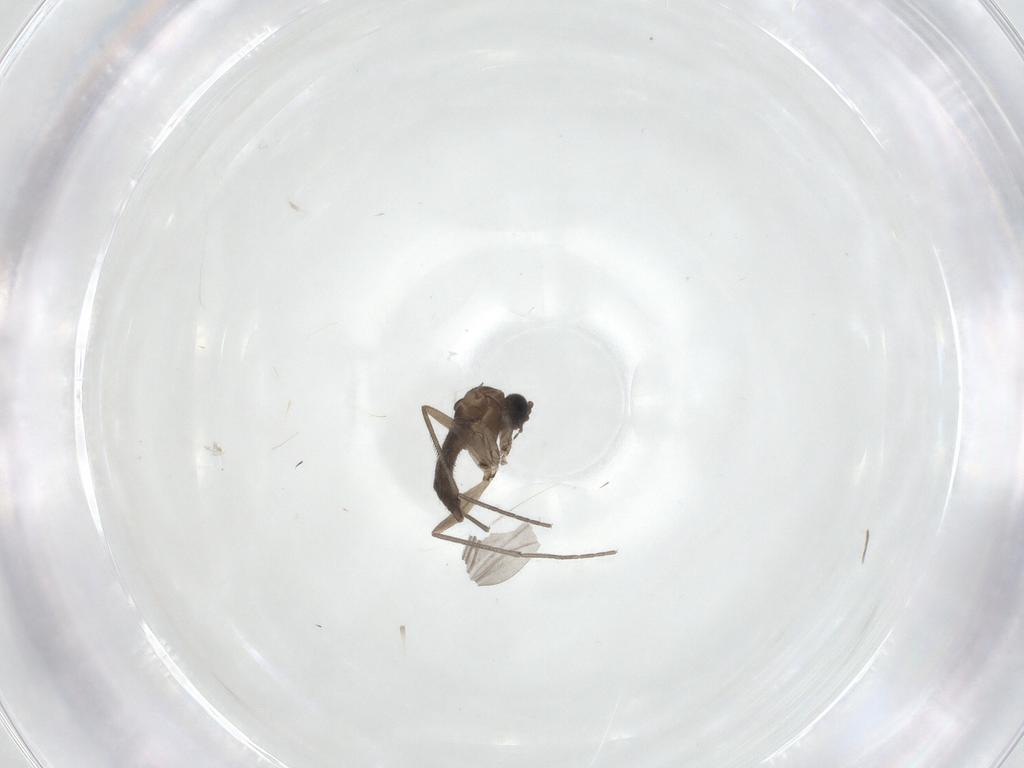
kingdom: Animalia
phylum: Arthropoda
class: Insecta
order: Diptera
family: Sciaridae
